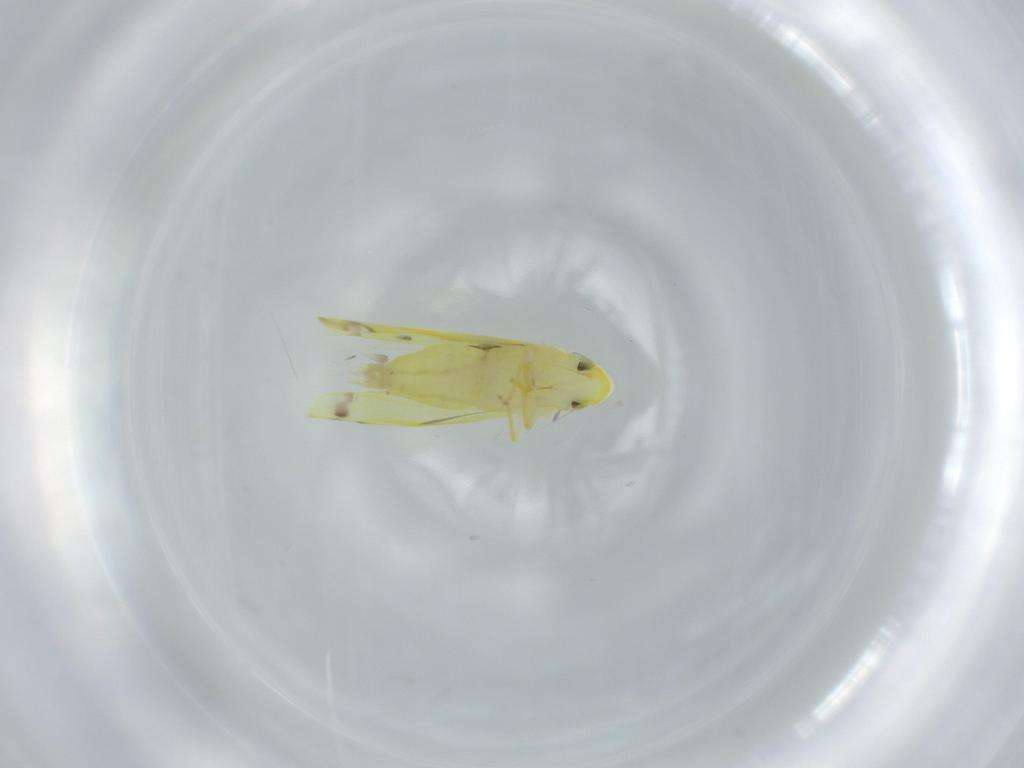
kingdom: Animalia
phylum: Arthropoda
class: Insecta
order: Hemiptera
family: Cicadellidae
